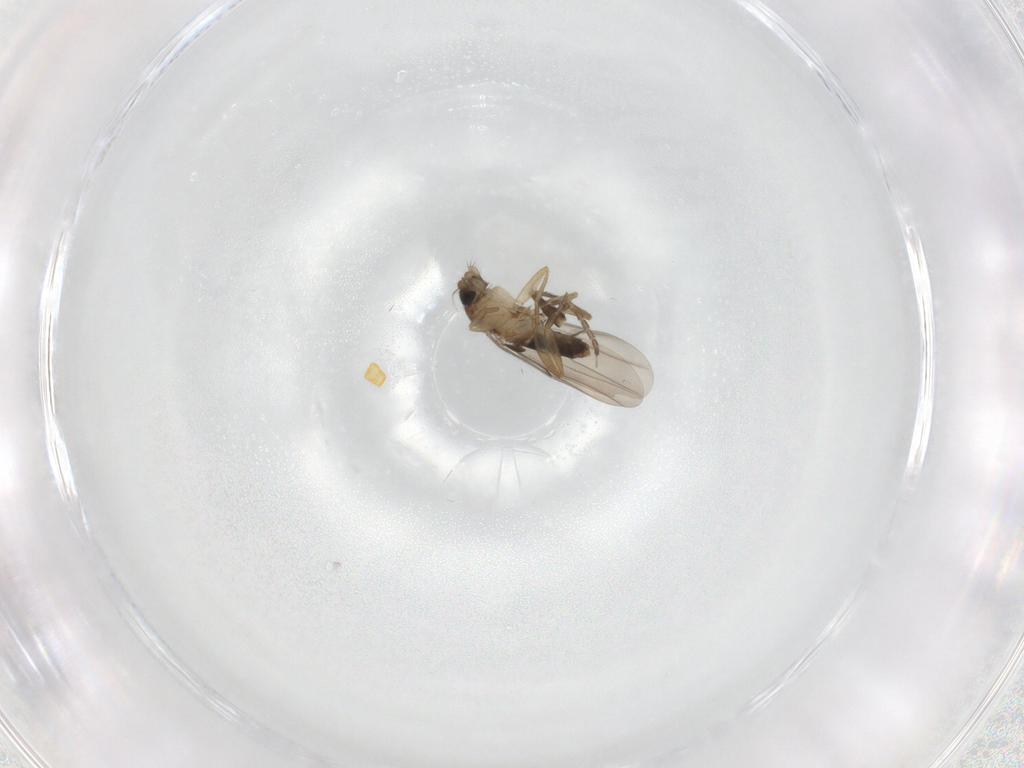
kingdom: Animalia
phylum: Arthropoda
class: Insecta
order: Diptera
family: Phoridae
